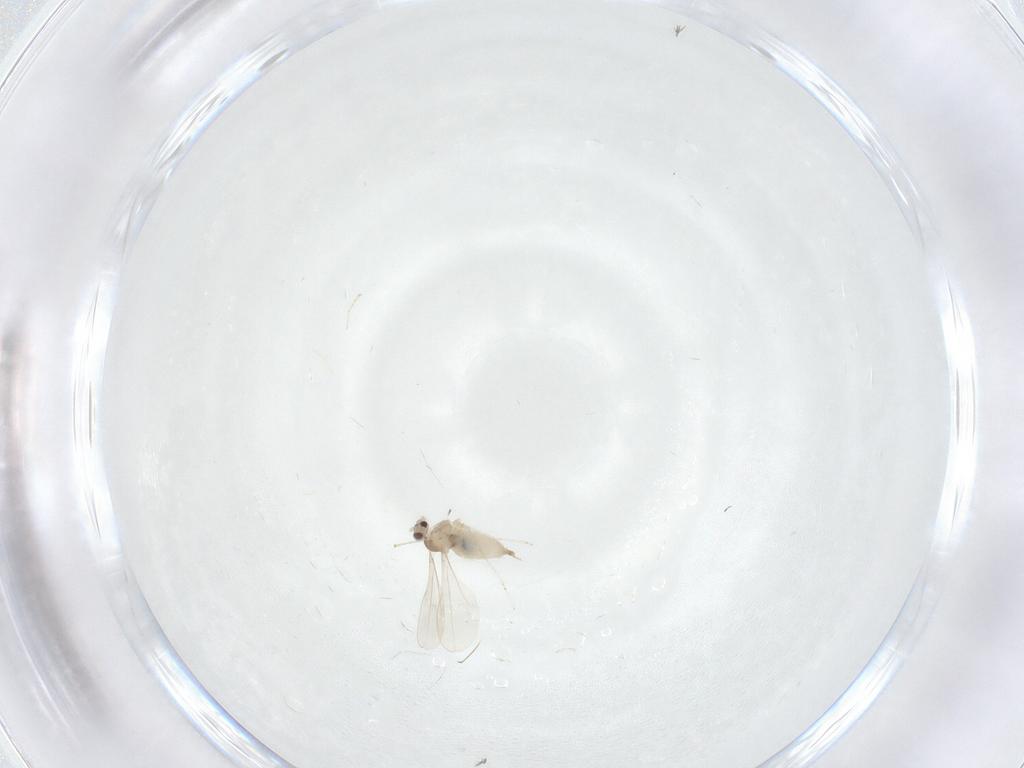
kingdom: Animalia
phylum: Arthropoda
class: Insecta
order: Diptera
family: Cecidomyiidae
